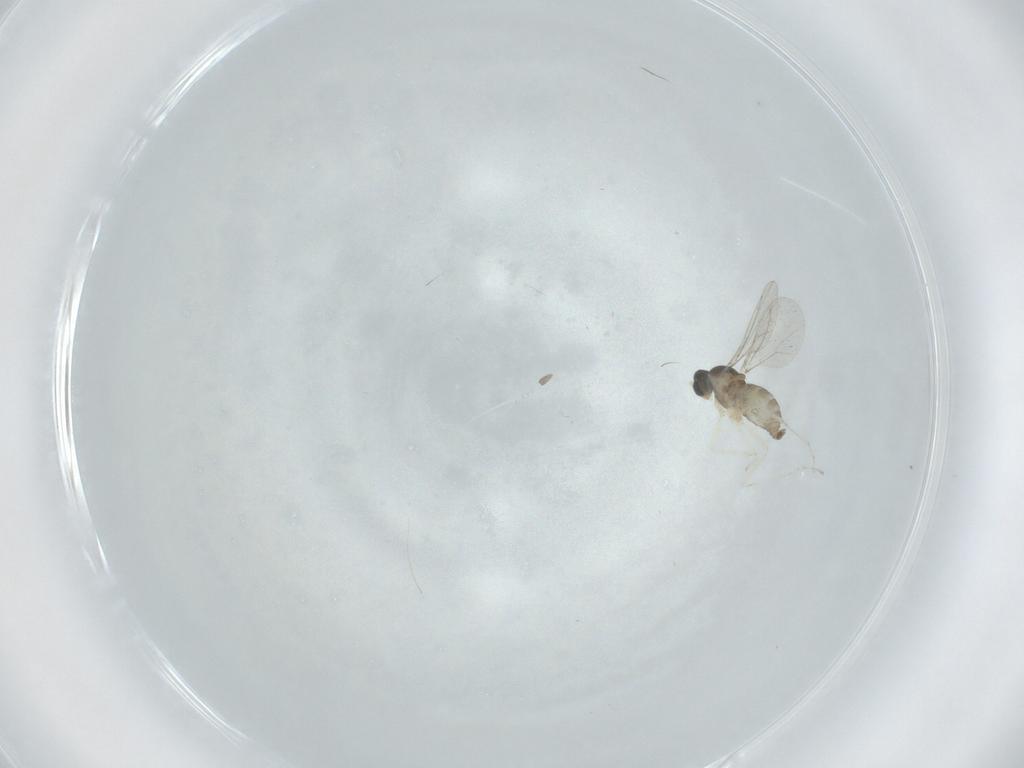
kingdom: Animalia
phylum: Arthropoda
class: Insecta
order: Diptera
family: Cecidomyiidae
